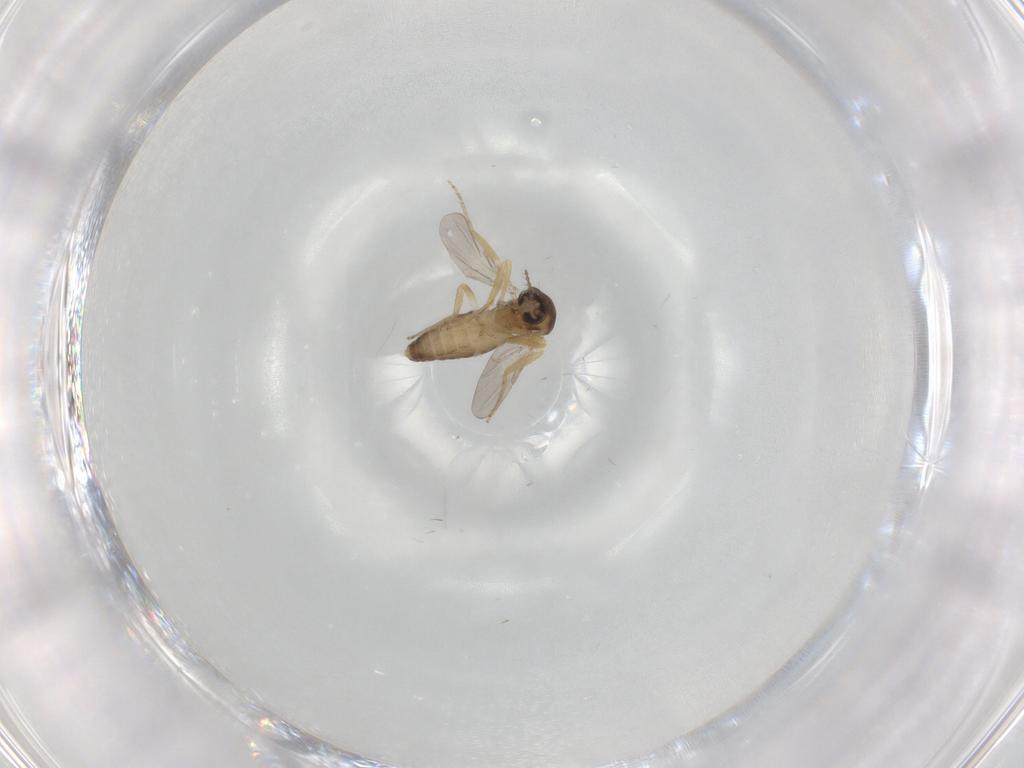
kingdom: Animalia
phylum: Arthropoda
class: Insecta
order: Diptera
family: Ceratopogonidae
